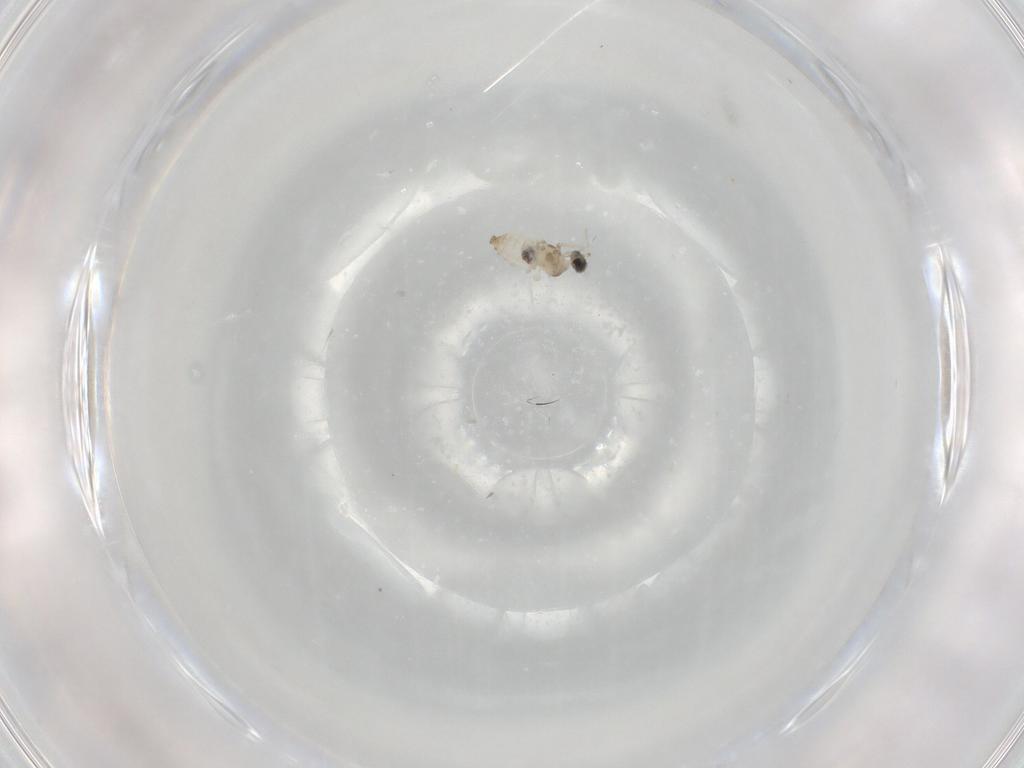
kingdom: Animalia
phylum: Arthropoda
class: Insecta
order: Diptera
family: Cecidomyiidae
